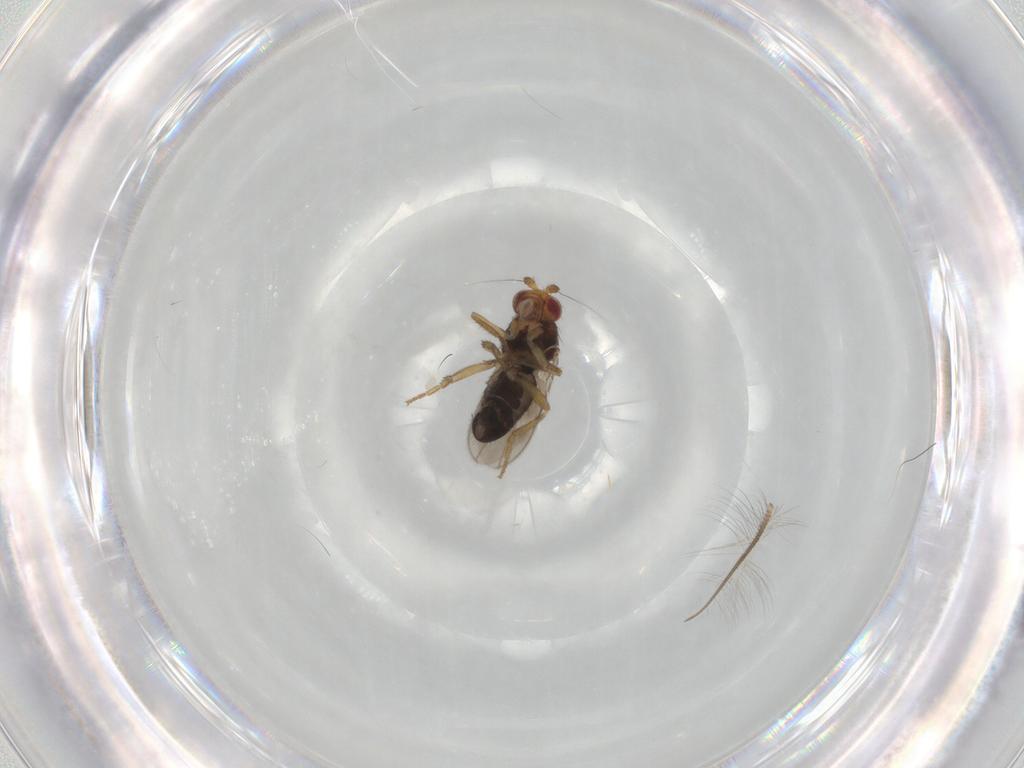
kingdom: Animalia
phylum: Arthropoda
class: Insecta
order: Diptera
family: Sphaeroceridae
